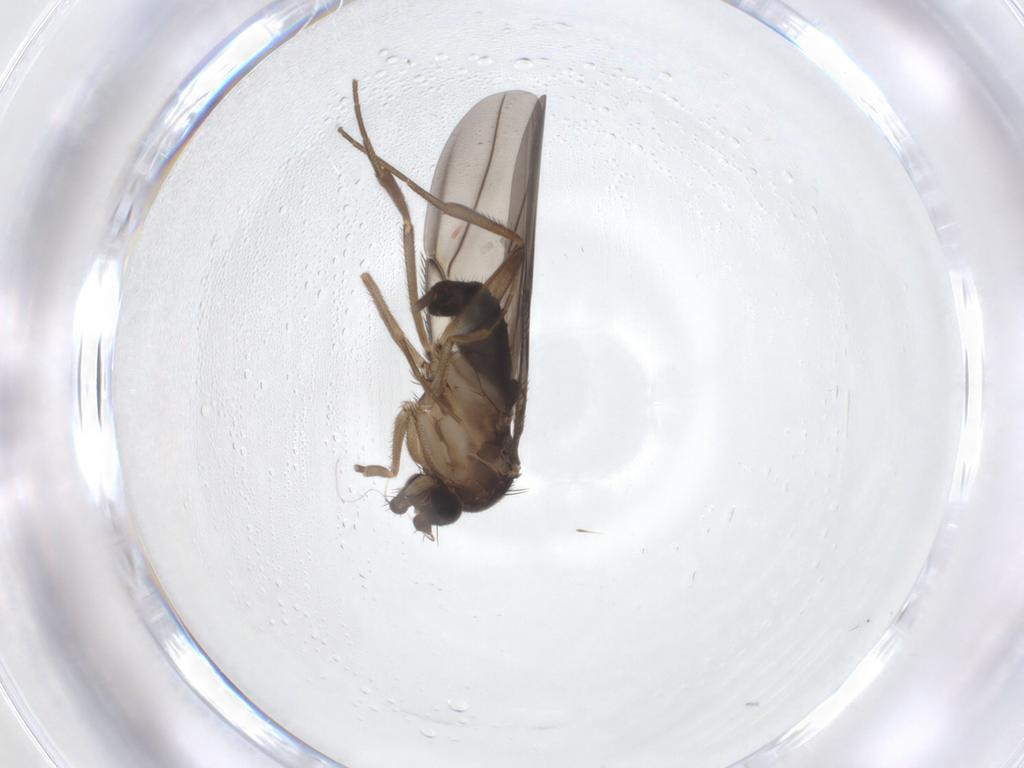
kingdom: Animalia
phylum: Arthropoda
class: Insecta
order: Diptera
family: Phoridae
